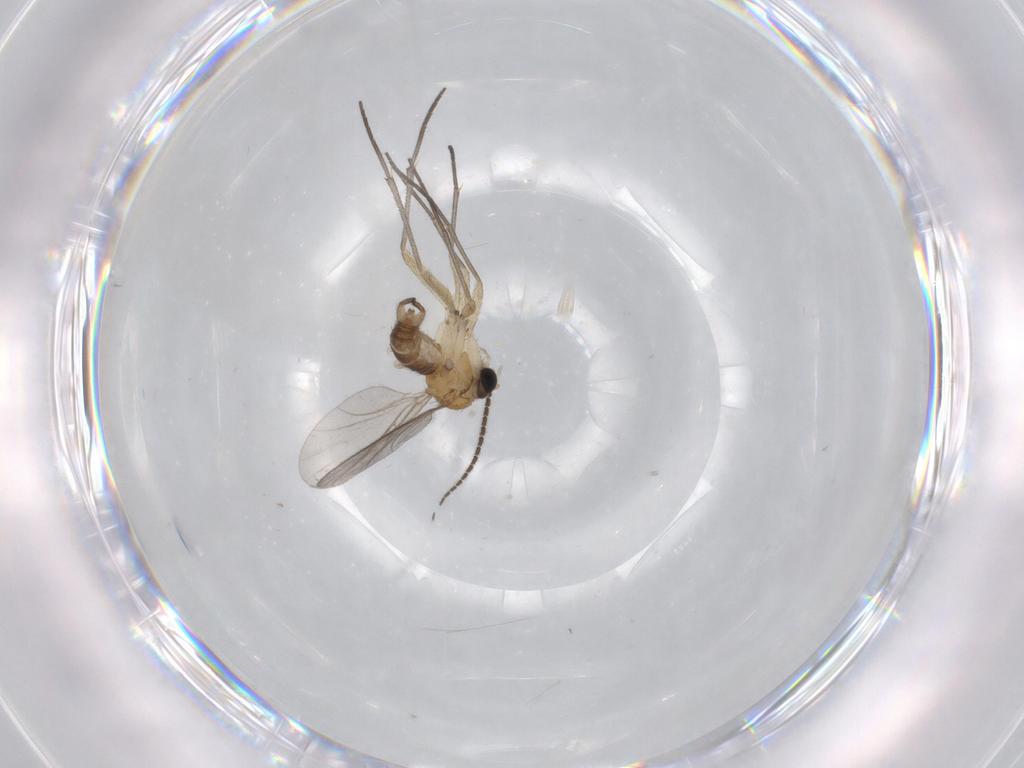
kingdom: Animalia
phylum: Arthropoda
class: Insecta
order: Diptera
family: Sciaridae
